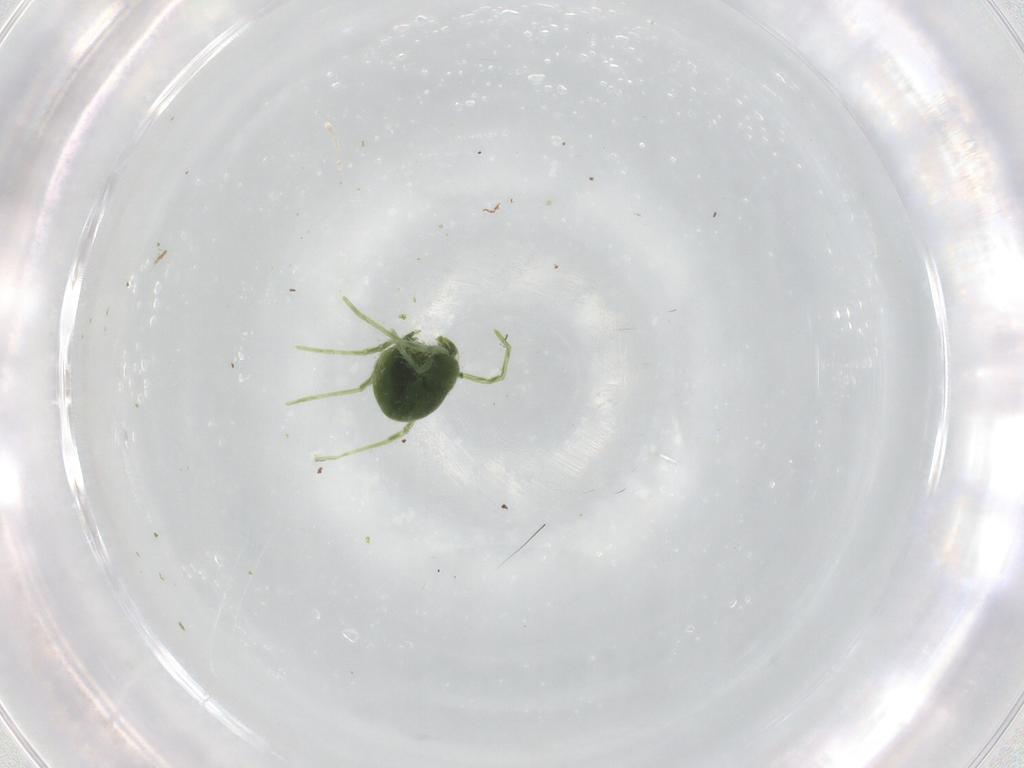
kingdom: Animalia
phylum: Arthropoda
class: Arachnida
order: Trombidiformes
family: Penthaleidae
